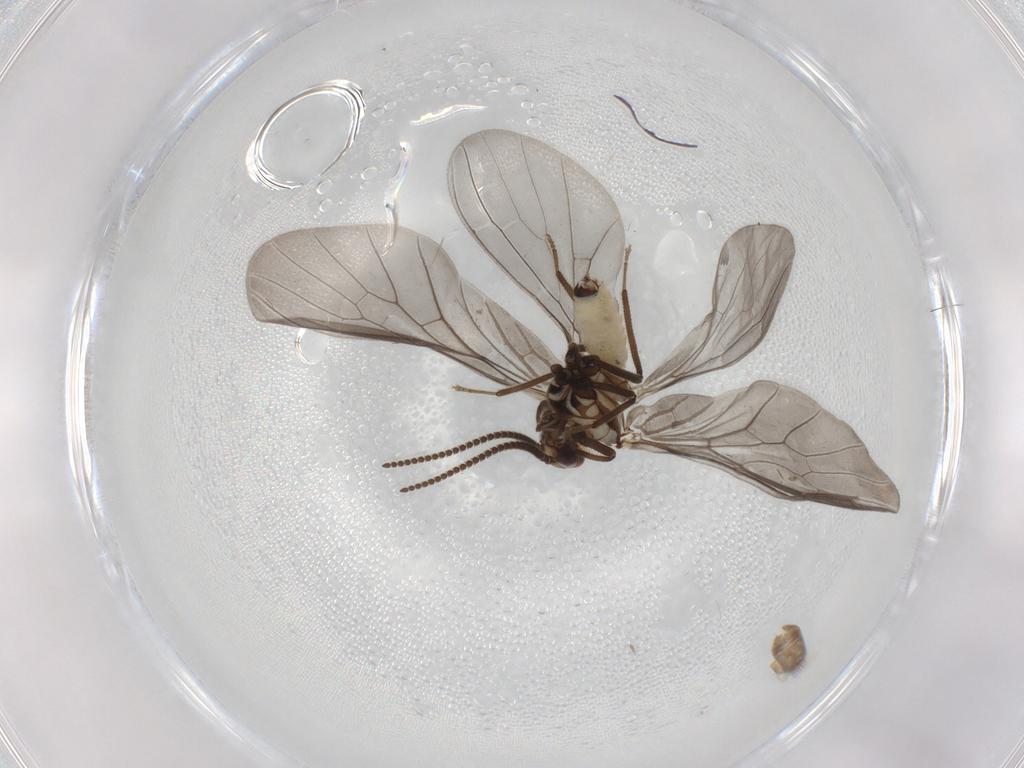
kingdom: Animalia
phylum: Arthropoda
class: Insecta
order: Neuroptera
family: Coniopterygidae
